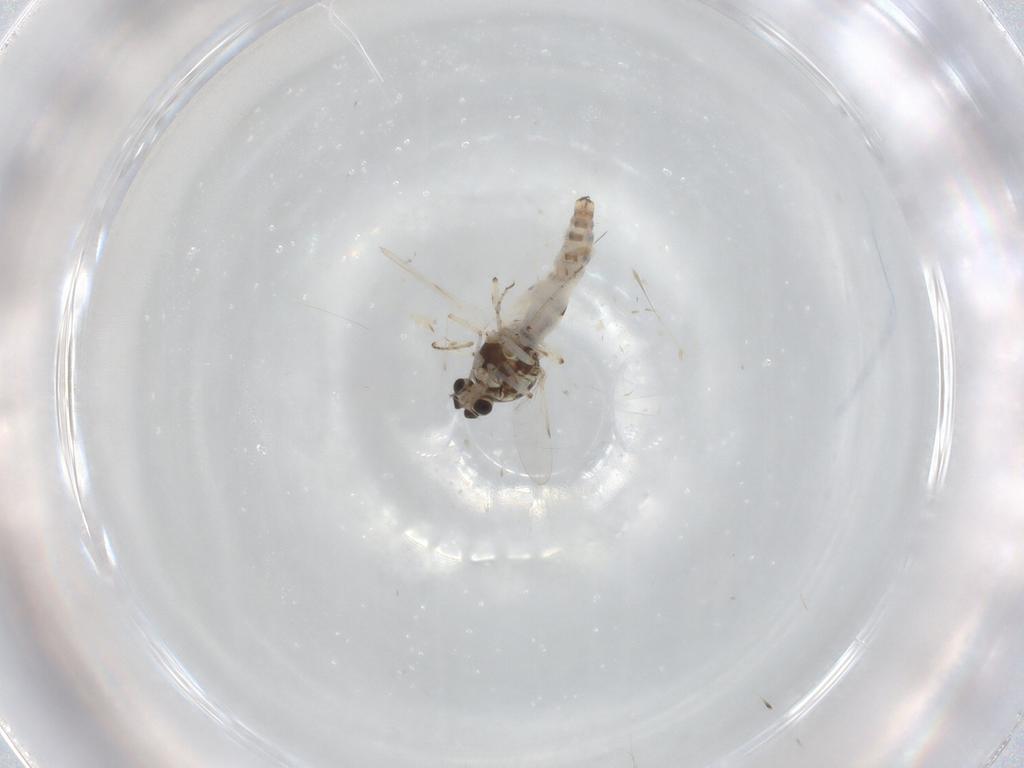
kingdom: Animalia
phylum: Arthropoda
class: Insecta
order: Diptera
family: Ceratopogonidae
